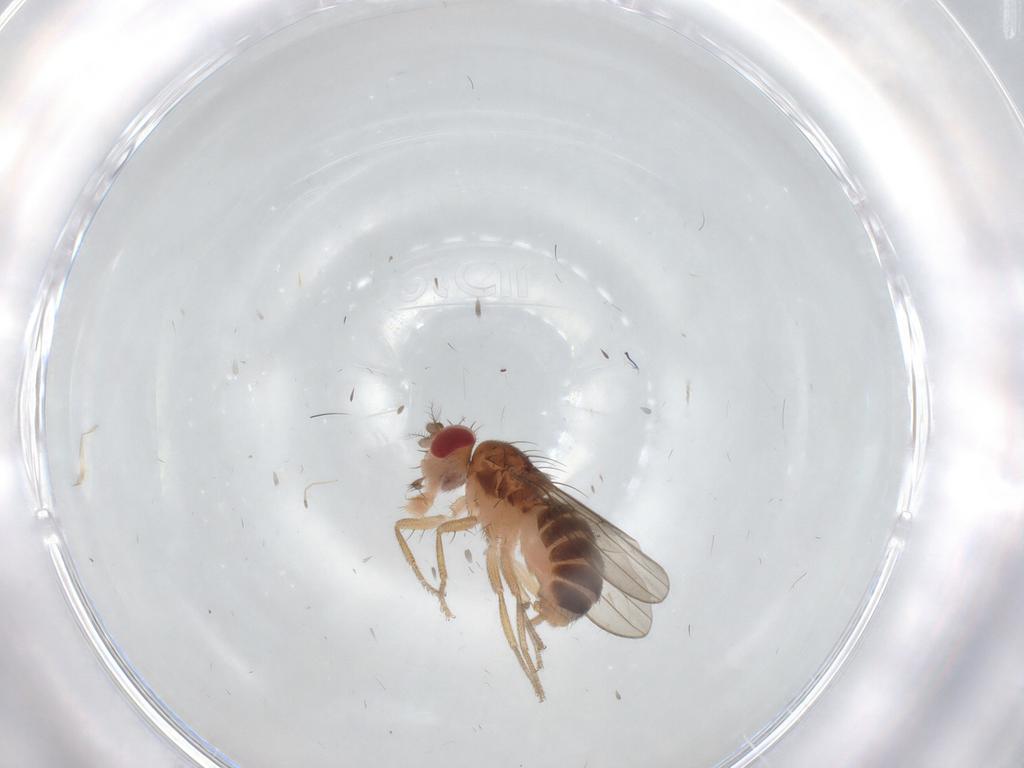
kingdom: Animalia
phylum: Arthropoda
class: Insecta
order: Diptera
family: Drosophilidae
